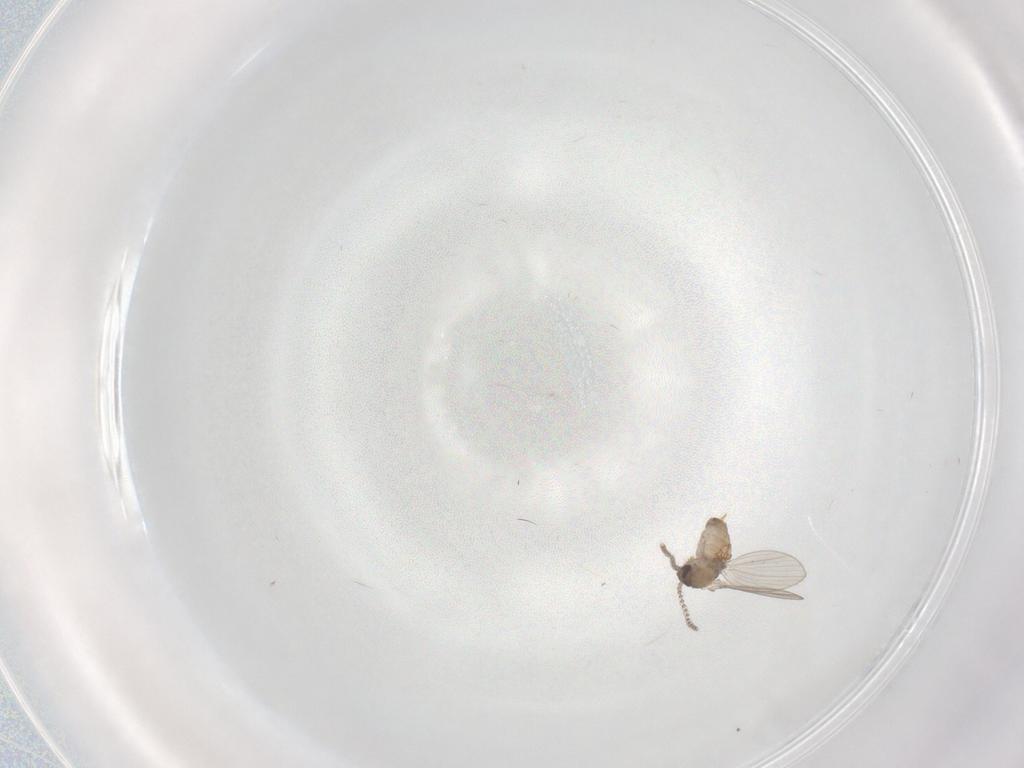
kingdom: Animalia
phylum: Arthropoda
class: Insecta
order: Diptera
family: Psychodidae
